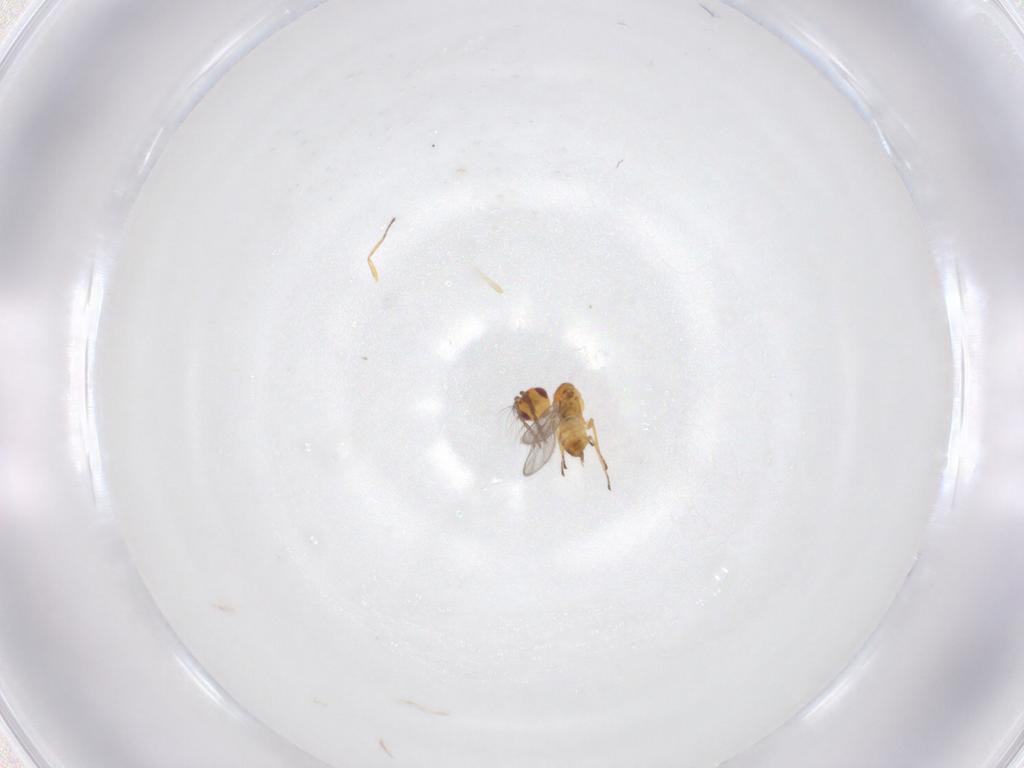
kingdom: Animalia
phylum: Arthropoda
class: Insecta
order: Hymenoptera
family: Eulophidae
